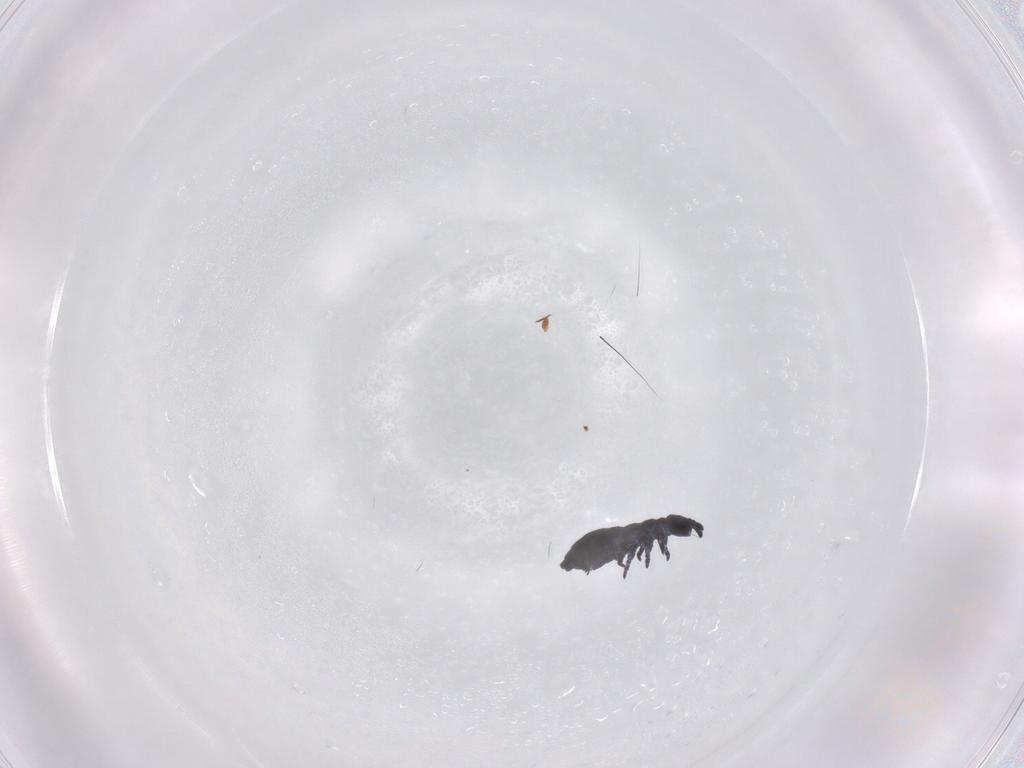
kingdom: Animalia
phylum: Arthropoda
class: Collembola
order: Poduromorpha
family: Hypogastruridae
